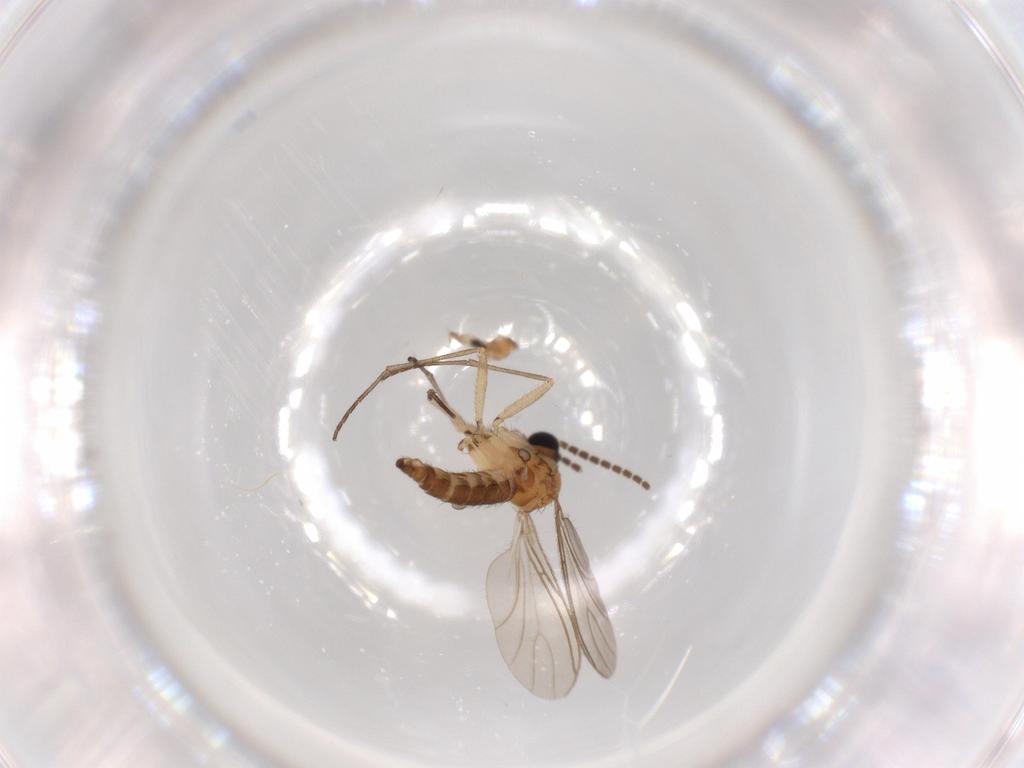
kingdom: Animalia
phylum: Arthropoda
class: Insecta
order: Diptera
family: Sciaridae
